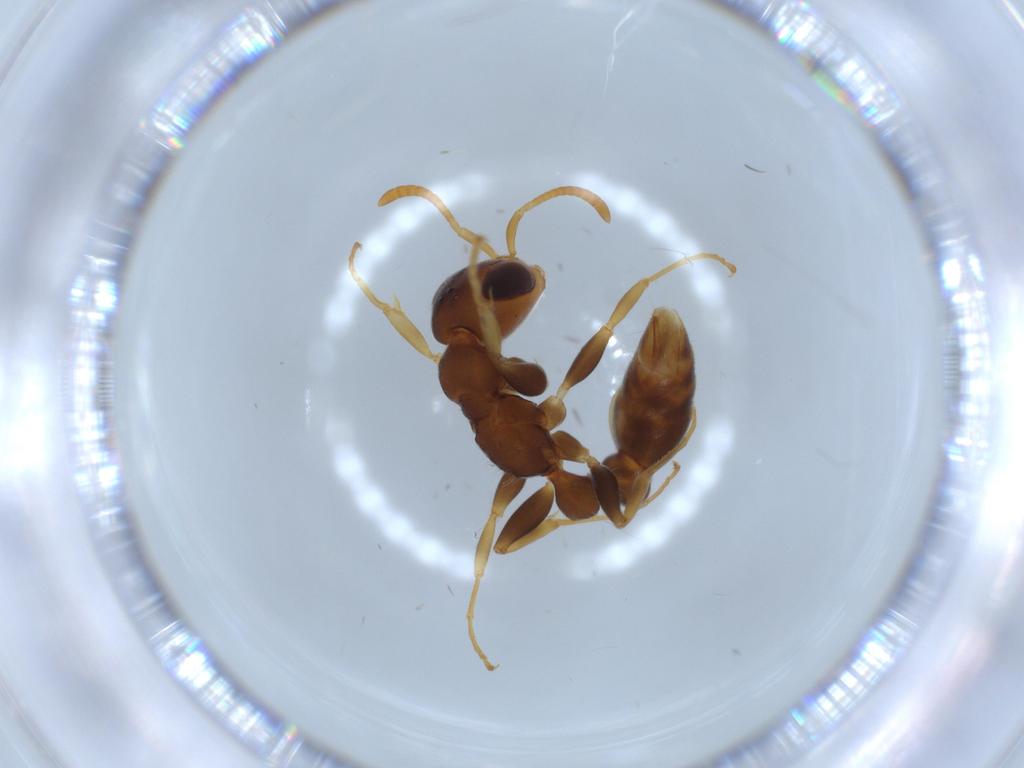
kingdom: Animalia
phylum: Arthropoda
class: Insecta
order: Hymenoptera
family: Formicidae
